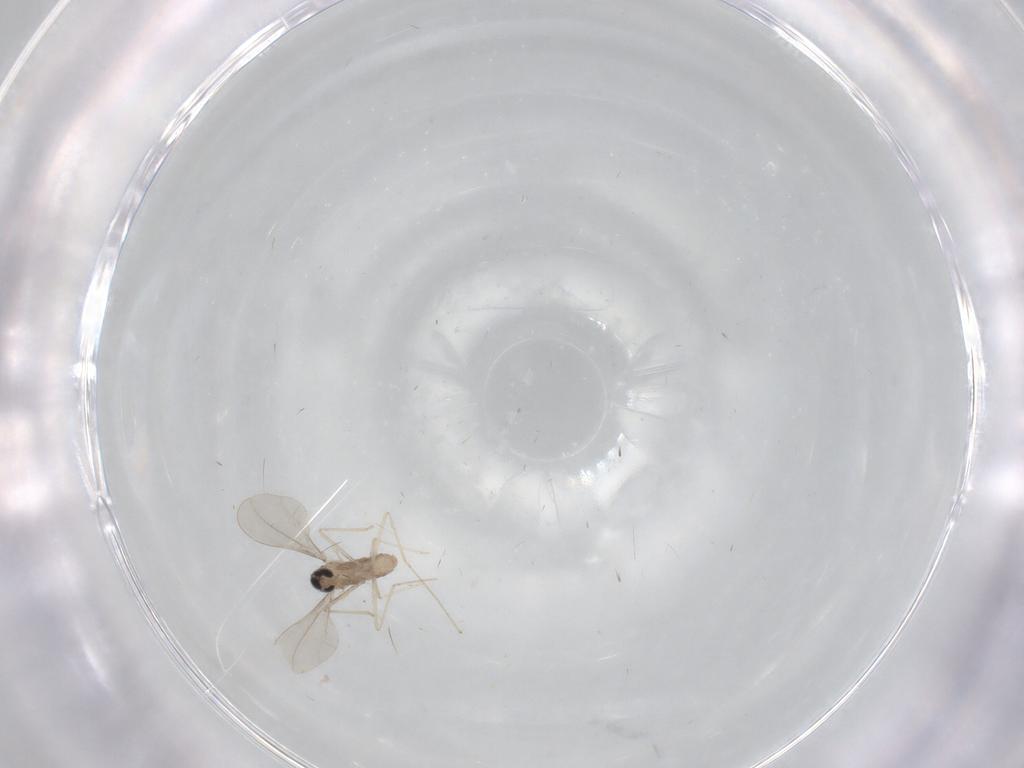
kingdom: Animalia
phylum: Arthropoda
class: Insecta
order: Diptera
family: Cecidomyiidae
